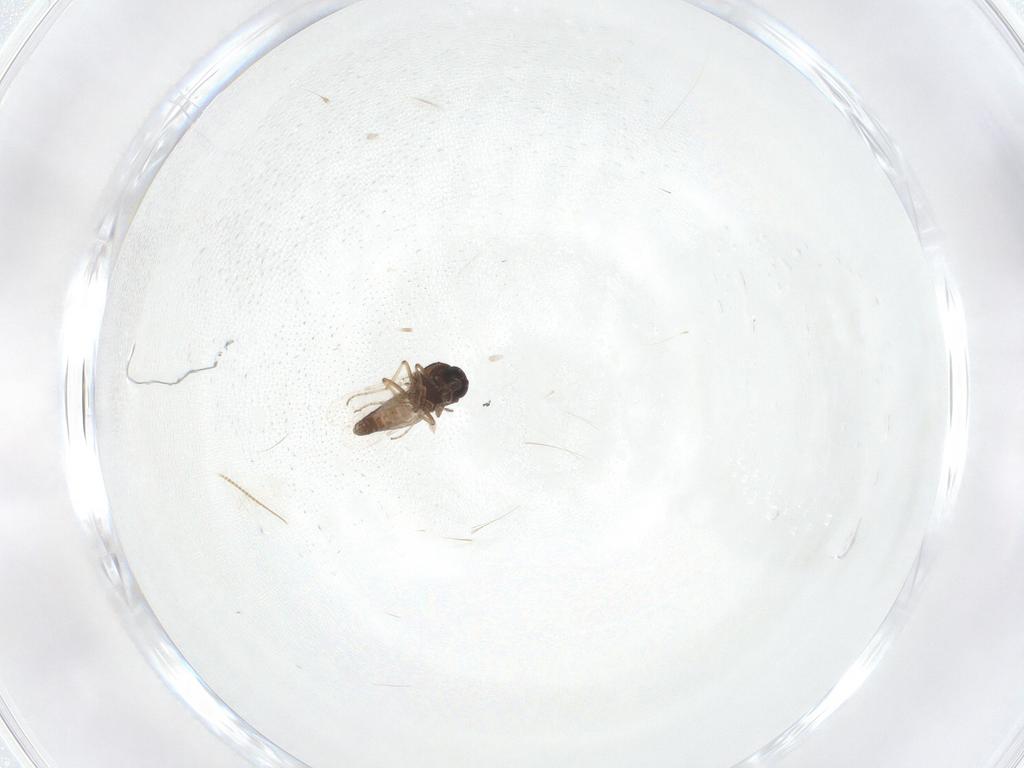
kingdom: Animalia
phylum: Arthropoda
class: Insecta
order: Diptera
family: Ceratopogonidae
